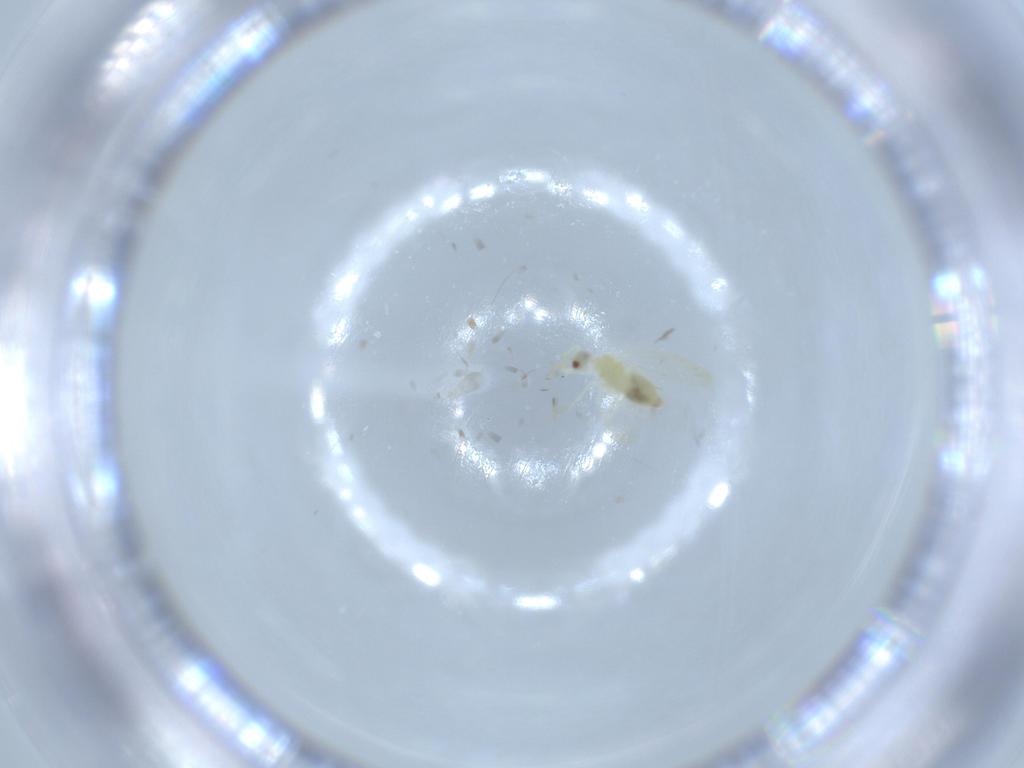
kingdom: Animalia
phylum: Arthropoda
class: Insecta
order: Hemiptera
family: Aleyrodidae
